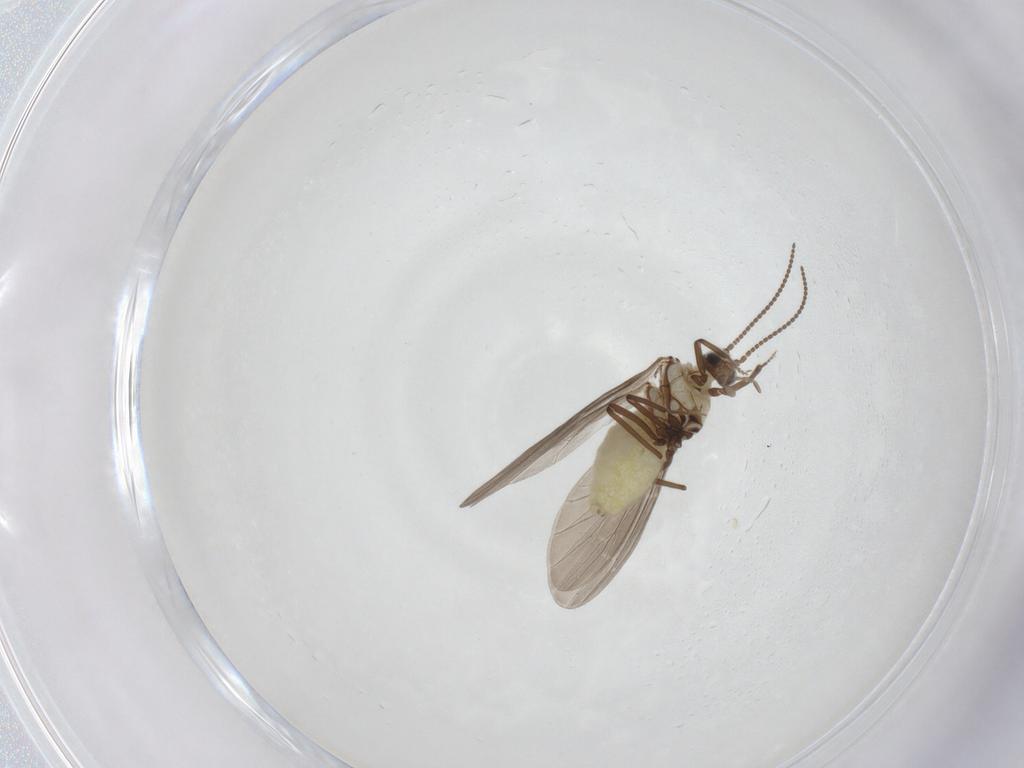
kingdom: Animalia
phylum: Arthropoda
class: Insecta
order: Neuroptera
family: Coniopterygidae
